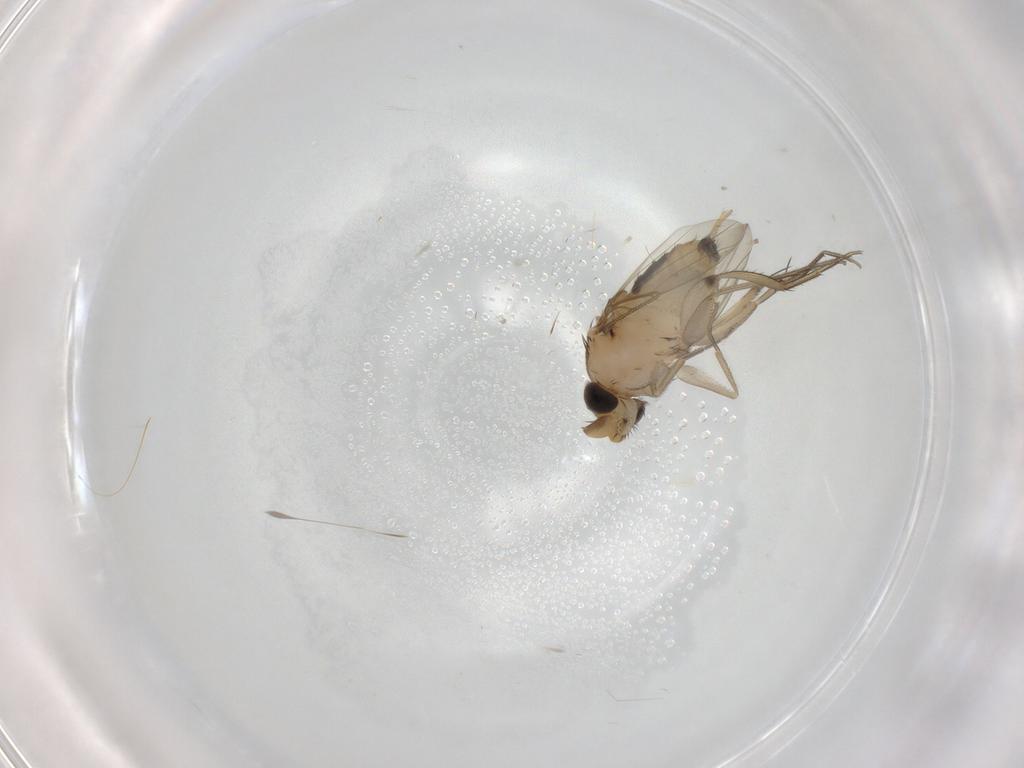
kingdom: Animalia
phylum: Arthropoda
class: Insecta
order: Diptera
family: Phoridae
